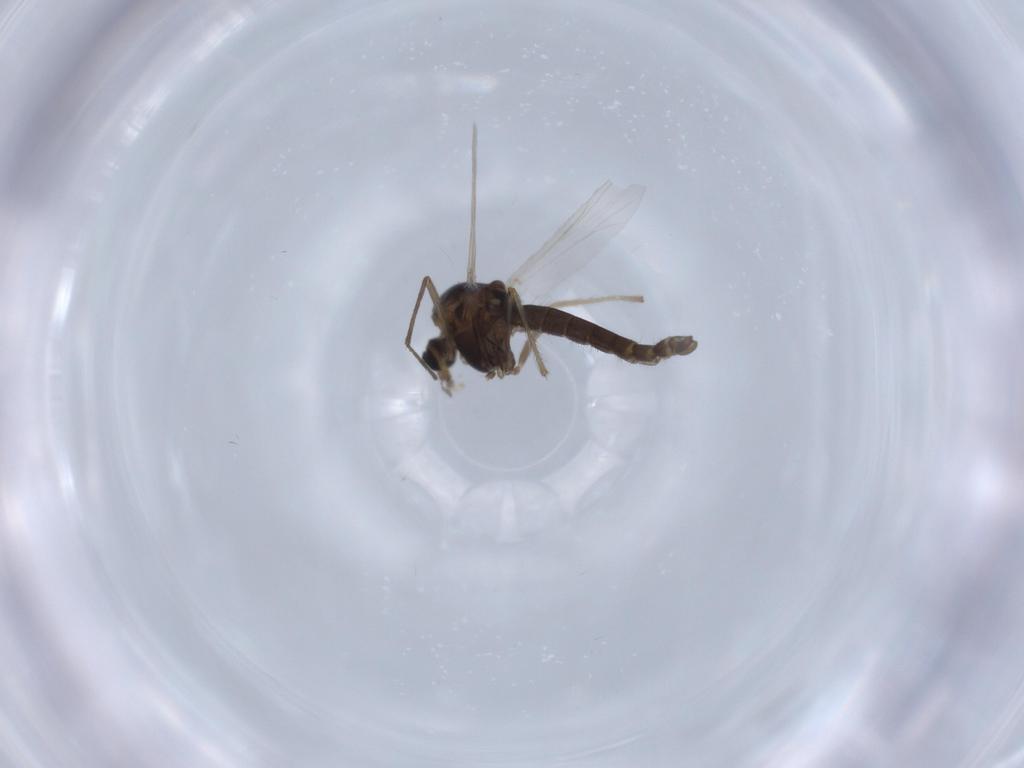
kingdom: Animalia
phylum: Arthropoda
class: Insecta
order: Diptera
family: Chironomidae
